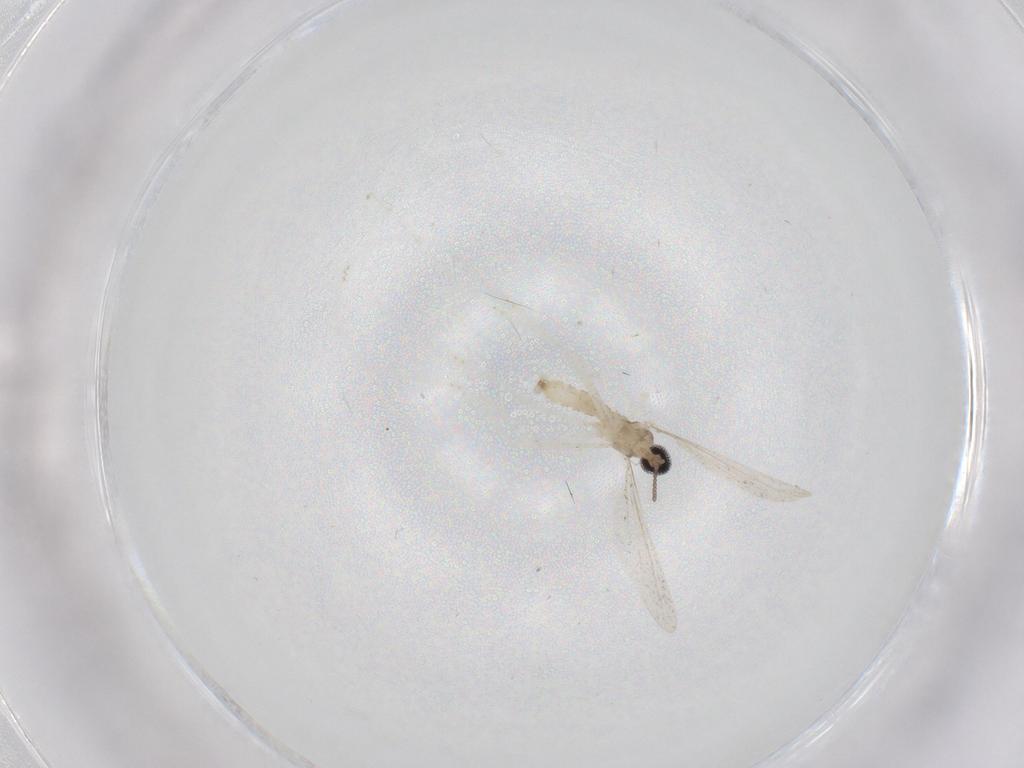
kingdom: Animalia
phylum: Arthropoda
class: Insecta
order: Diptera
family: Cecidomyiidae
